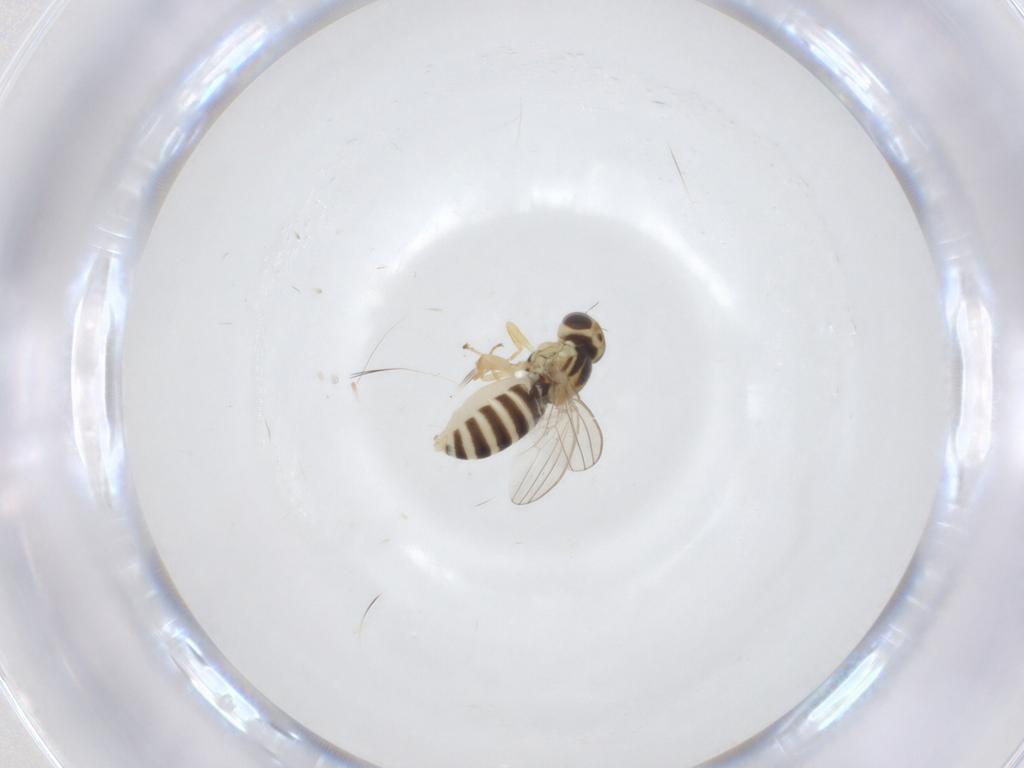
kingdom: Animalia
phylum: Arthropoda
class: Insecta
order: Diptera
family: Chyromyidae
